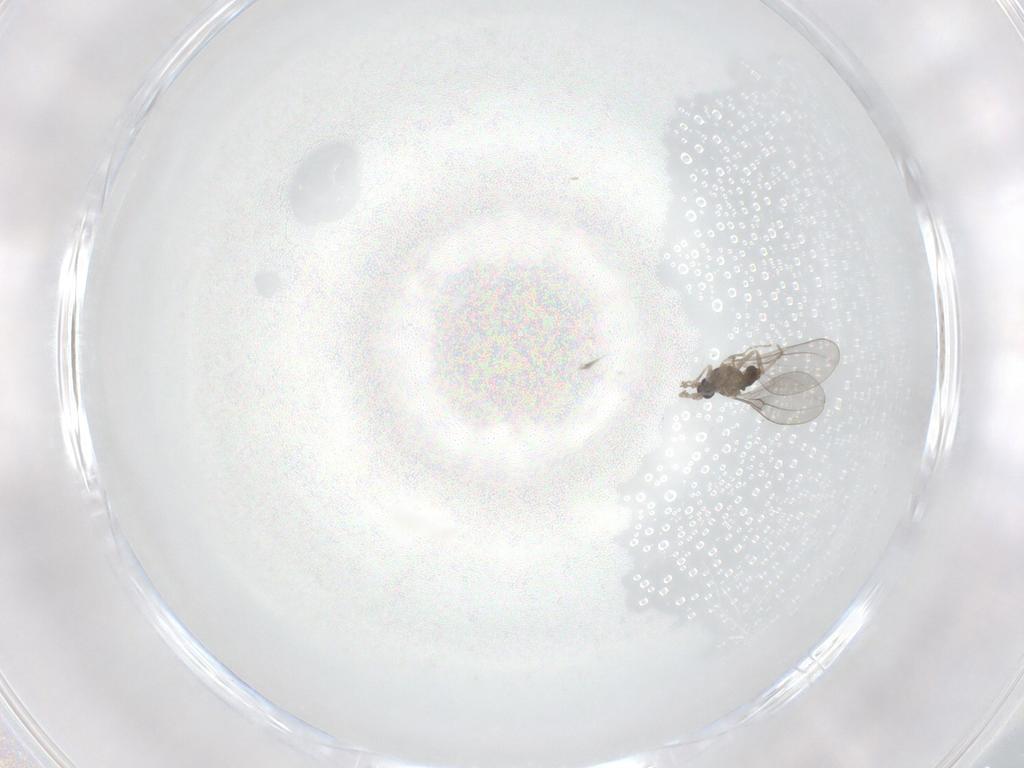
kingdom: Animalia
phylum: Arthropoda
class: Insecta
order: Diptera
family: Cecidomyiidae
